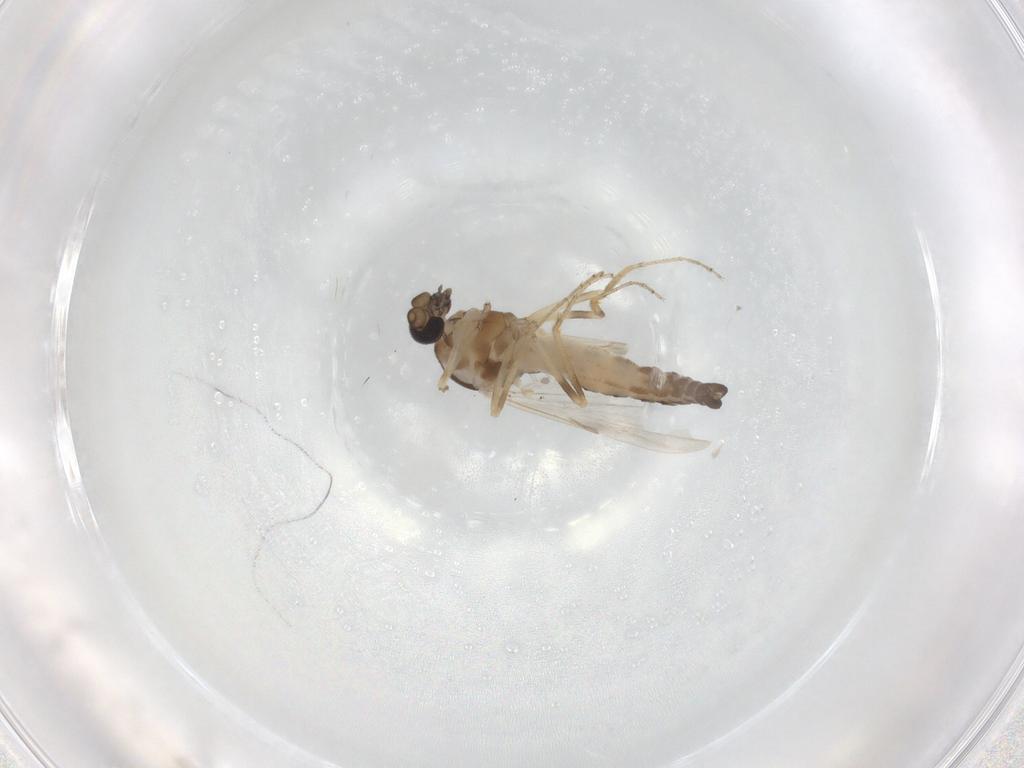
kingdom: Animalia
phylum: Arthropoda
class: Insecta
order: Diptera
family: Ceratopogonidae
